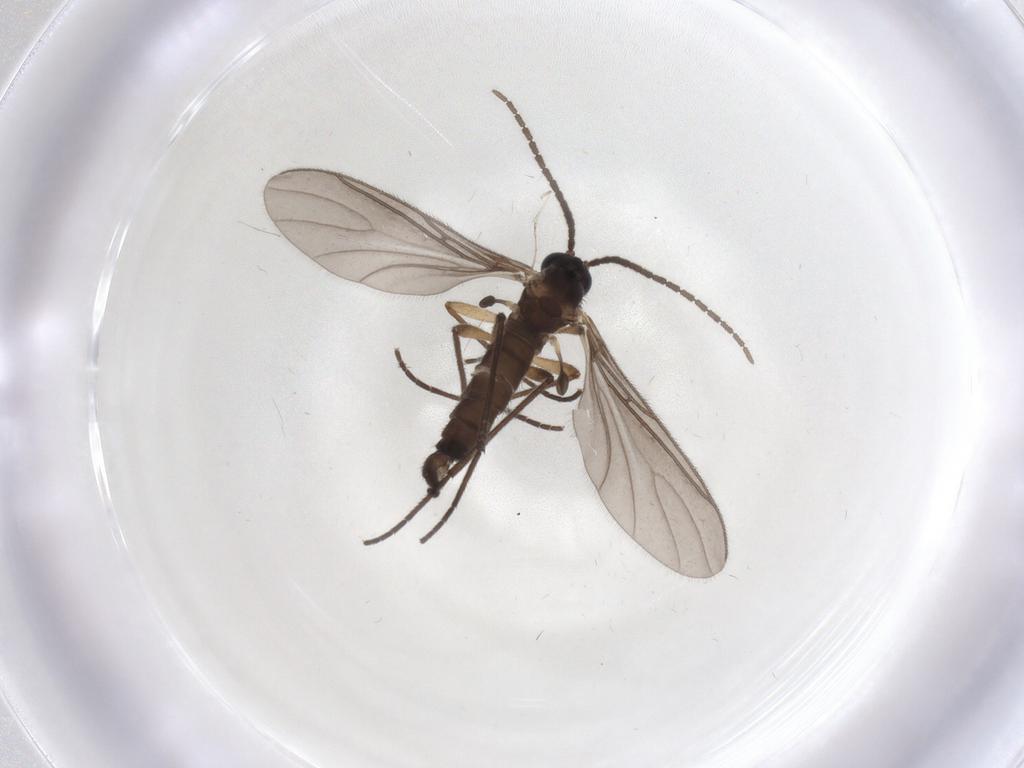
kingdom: Animalia
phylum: Arthropoda
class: Insecta
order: Diptera
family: Sciaridae
